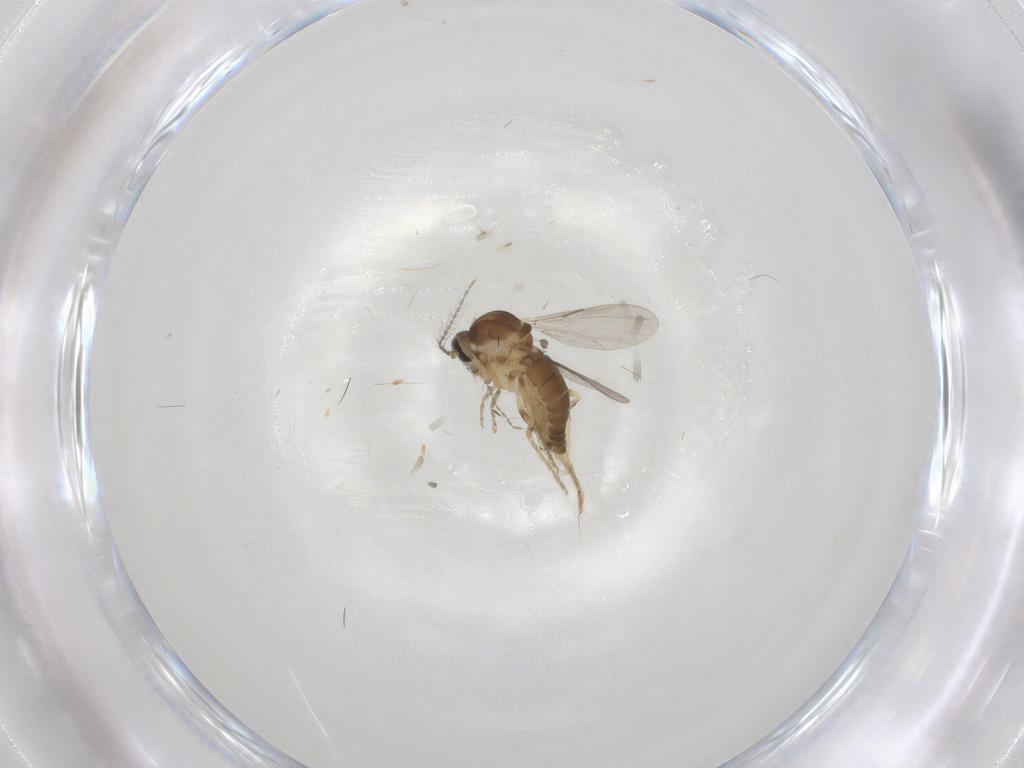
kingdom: Animalia
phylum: Arthropoda
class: Insecta
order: Diptera
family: Ceratopogonidae
